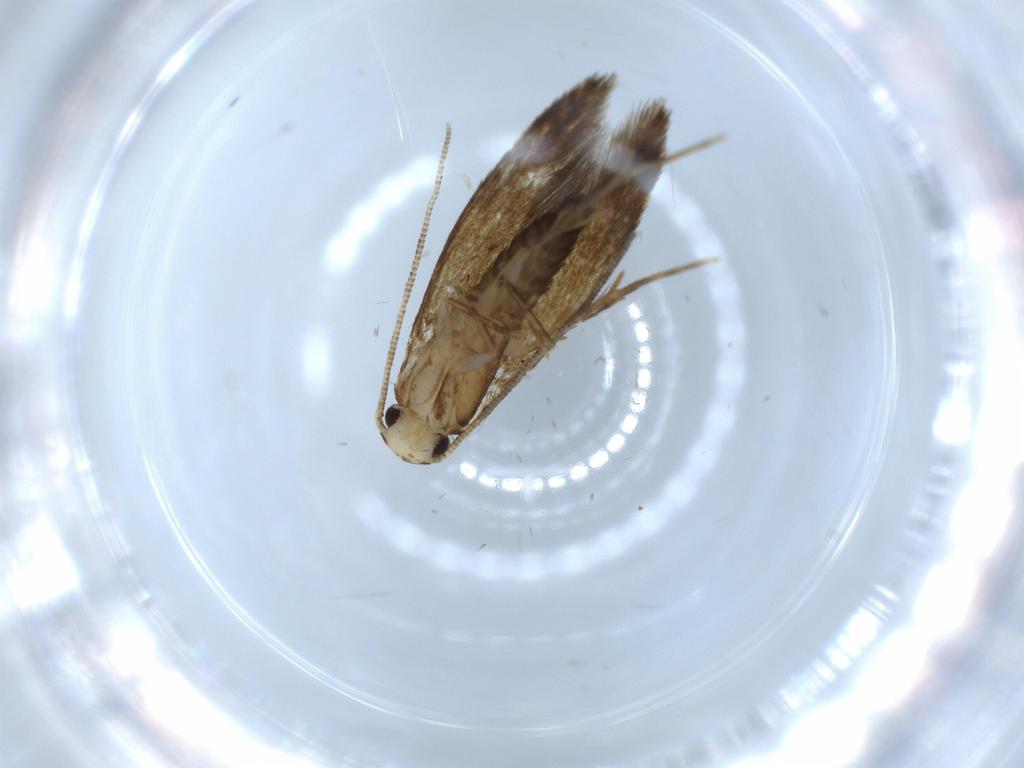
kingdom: Animalia
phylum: Arthropoda
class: Insecta
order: Lepidoptera
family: Tineidae
